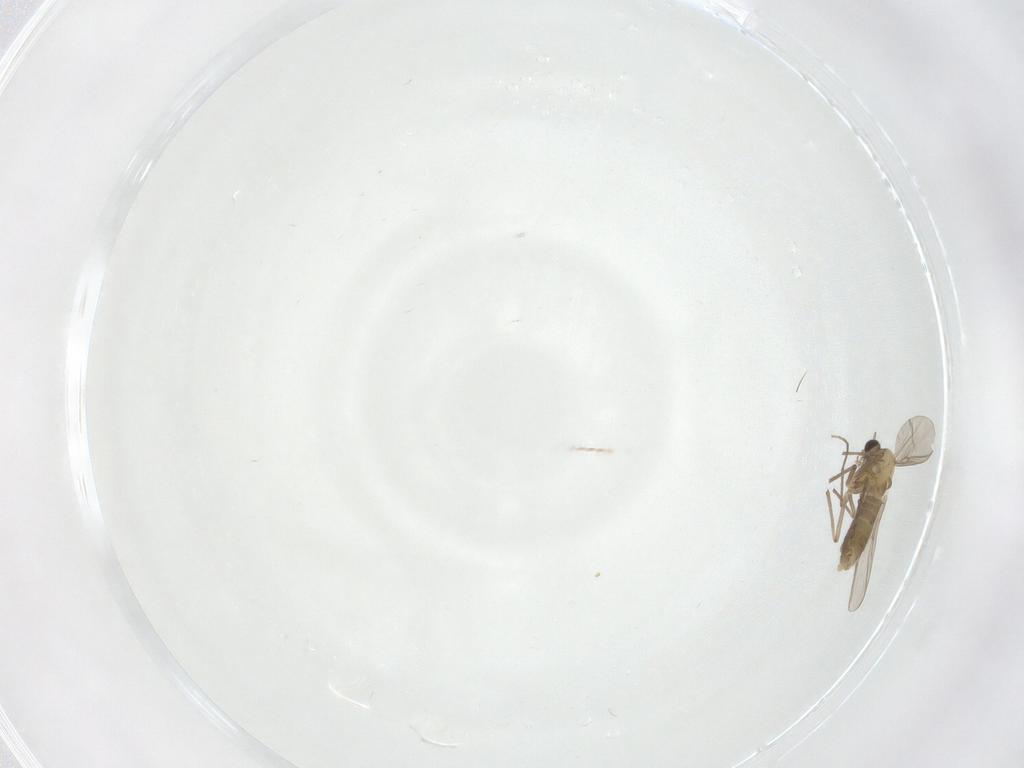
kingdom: Animalia
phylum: Arthropoda
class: Insecta
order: Diptera
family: Chironomidae
